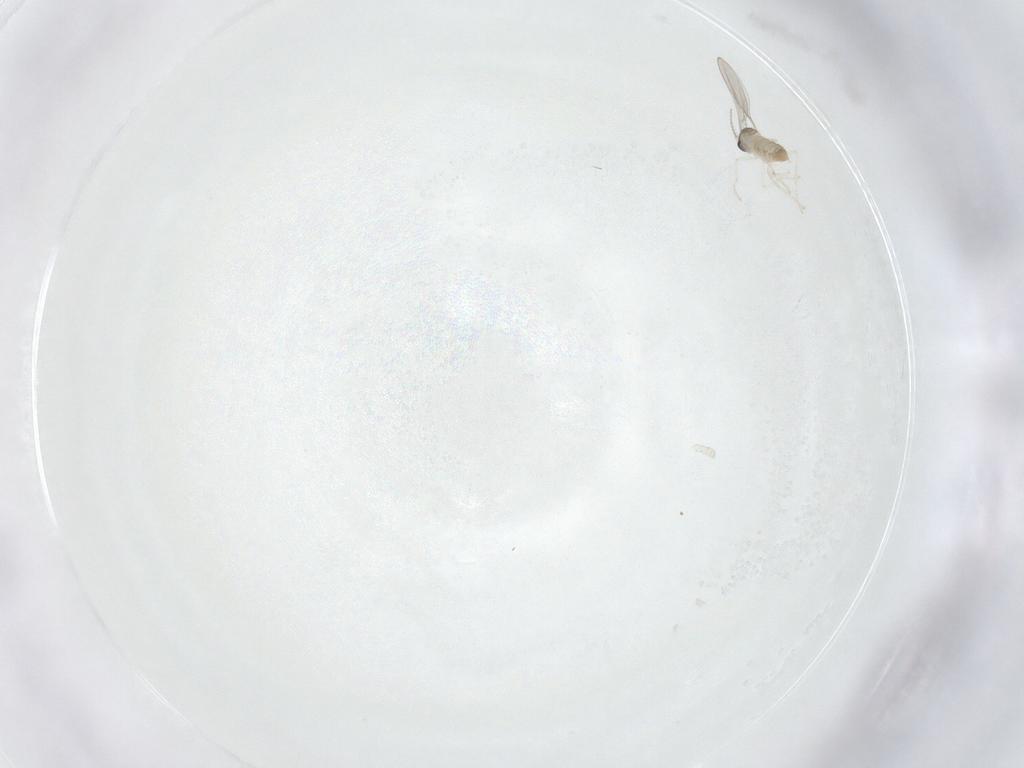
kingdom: Animalia
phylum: Arthropoda
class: Insecta
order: Diptera
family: Cecidomyiidae
